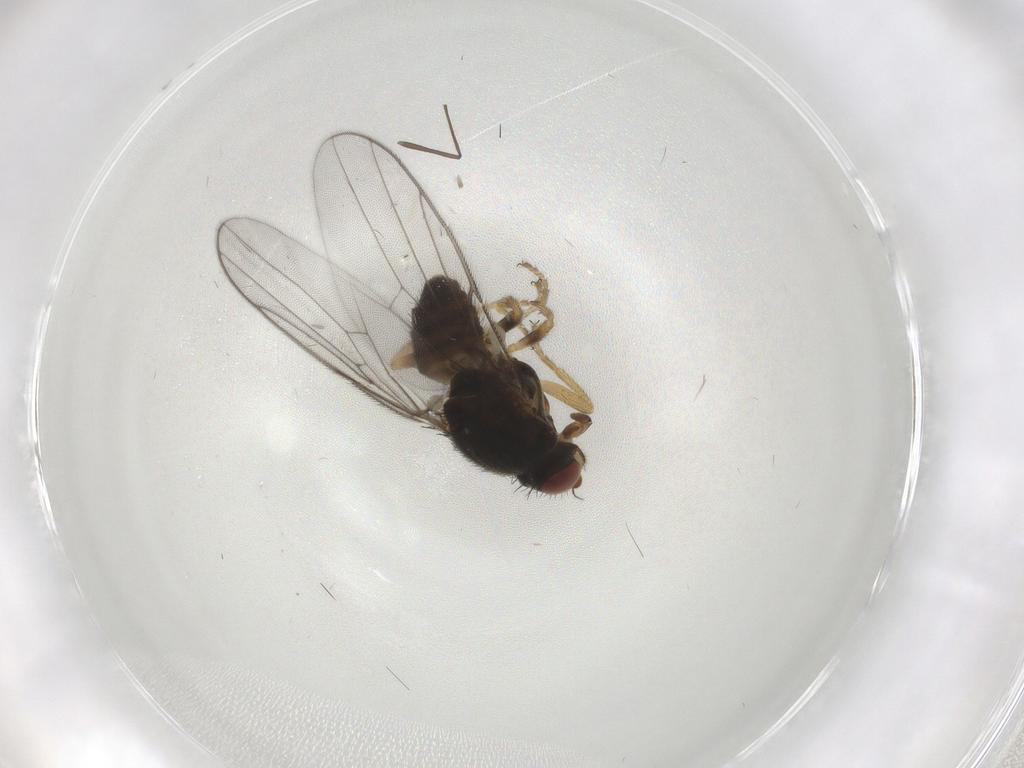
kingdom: Animalia
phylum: Arthropoda
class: Insecta
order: Diptera
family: Chloropidae
